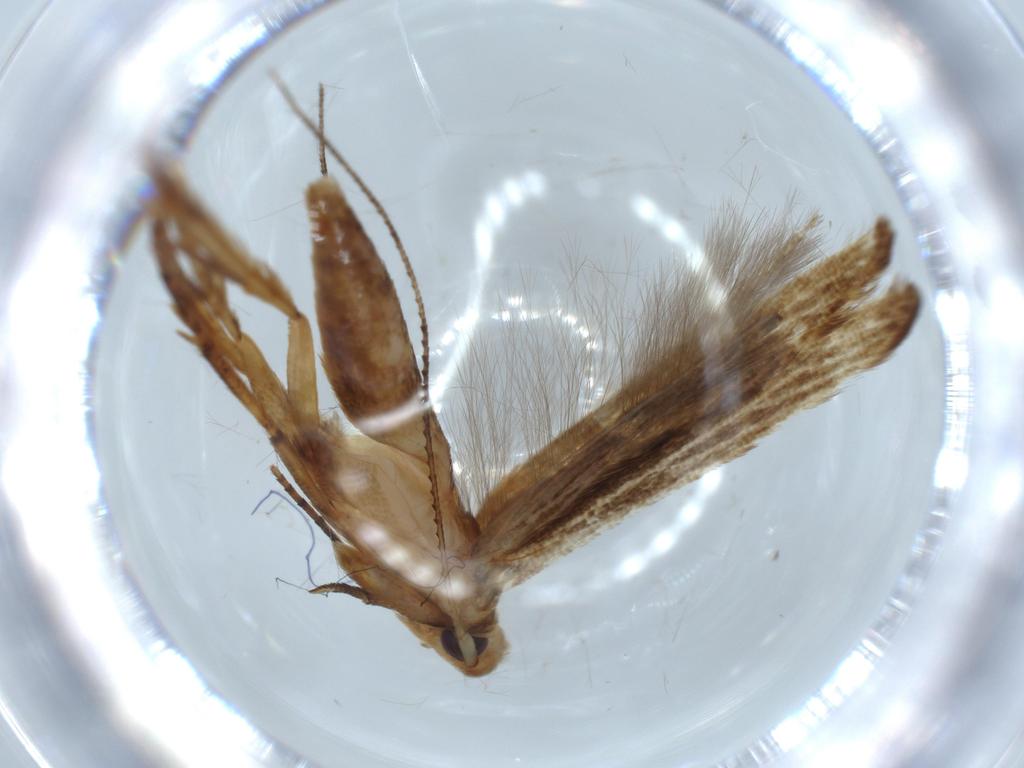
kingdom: Animalia
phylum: Arthropoda
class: Insecta
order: Lepidoptera
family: Heliodinidae
